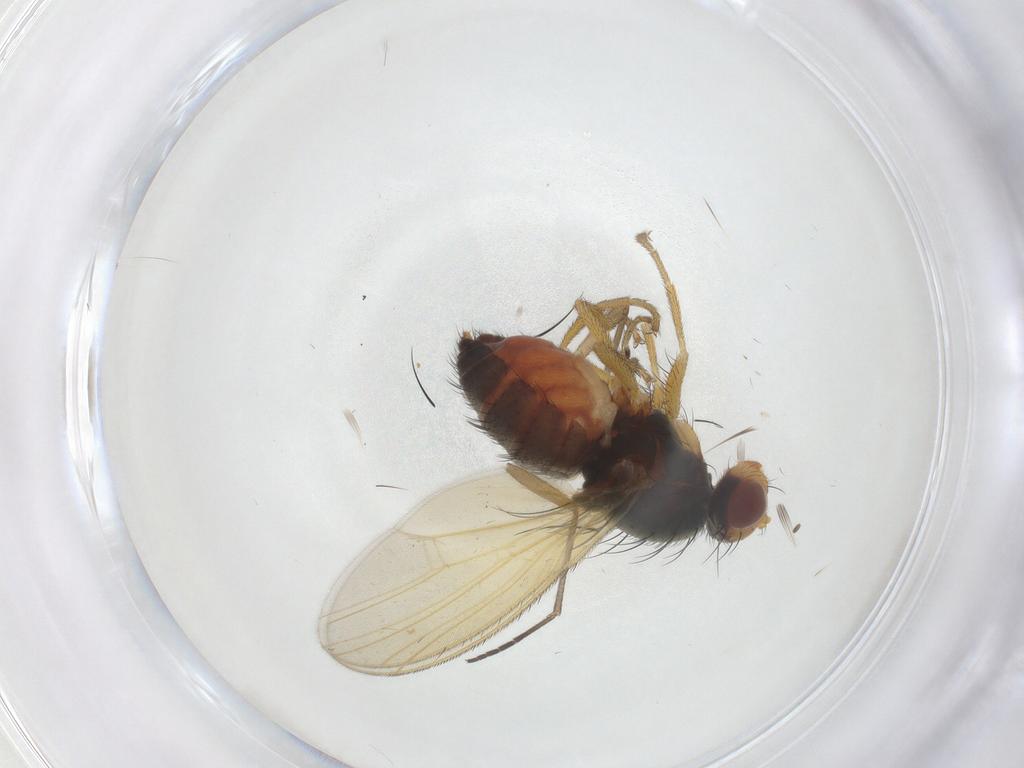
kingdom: Animalia
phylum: Arthropoda
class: Insecta
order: Diptera
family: Heleomyzidae
